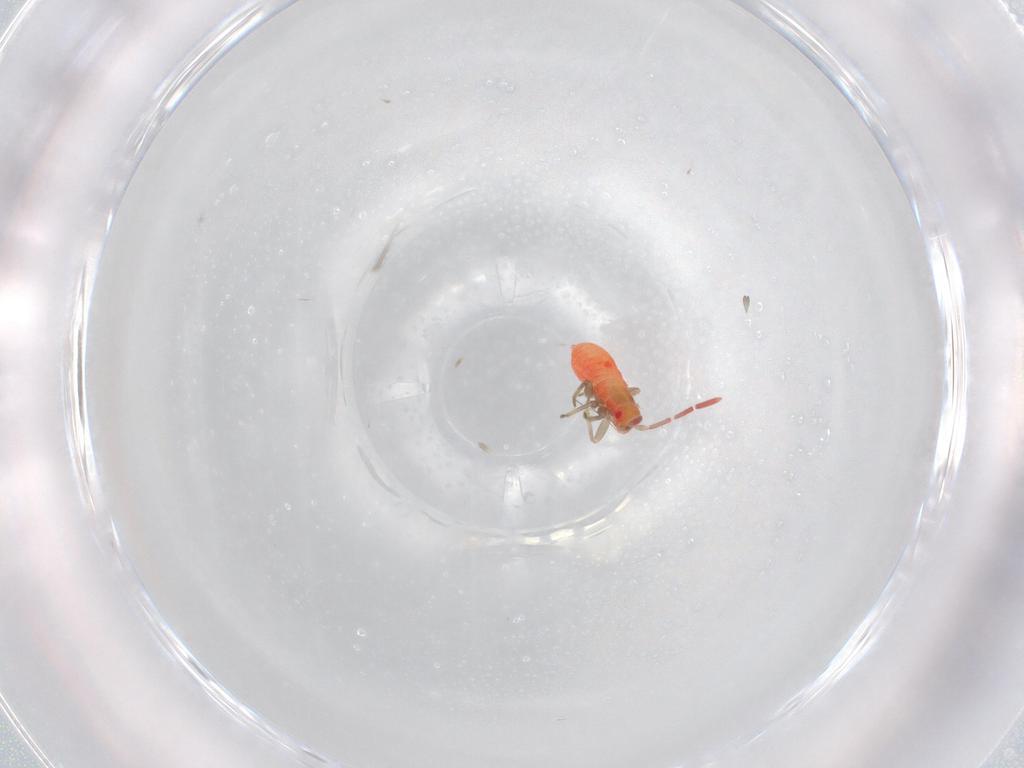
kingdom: Animalia
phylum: Arthropoda
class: Insecta
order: Hemiptera
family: Miridae
